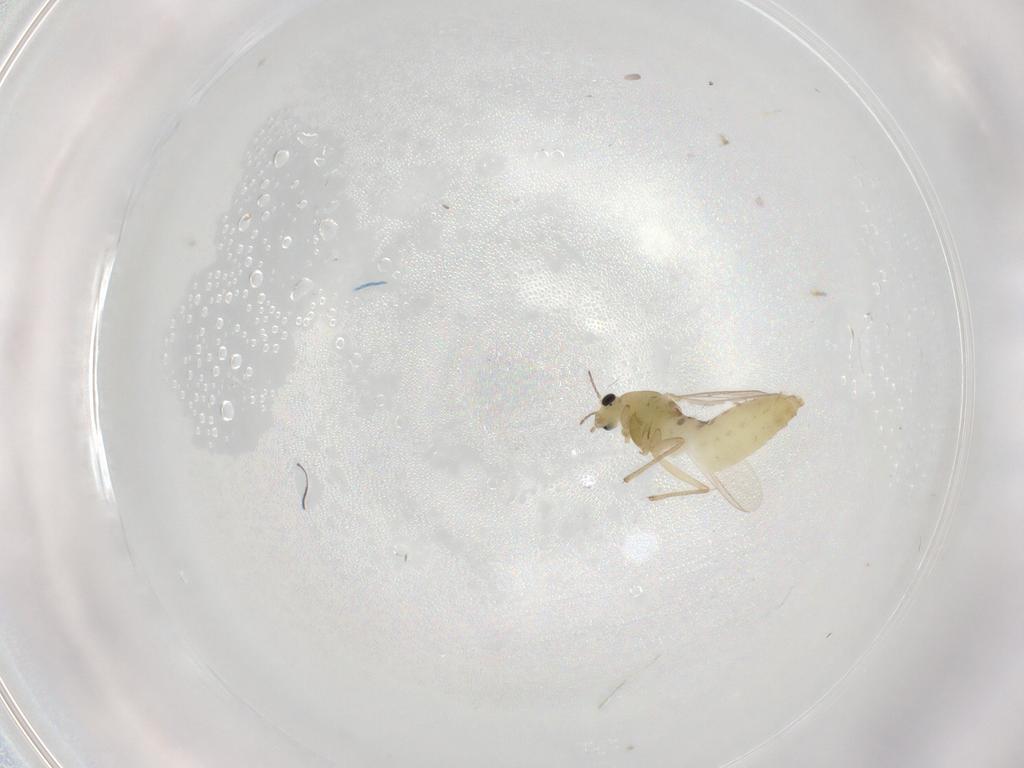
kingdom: Animalia
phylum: Arthropoda
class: Insecta
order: Diptera
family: Chironomidae
